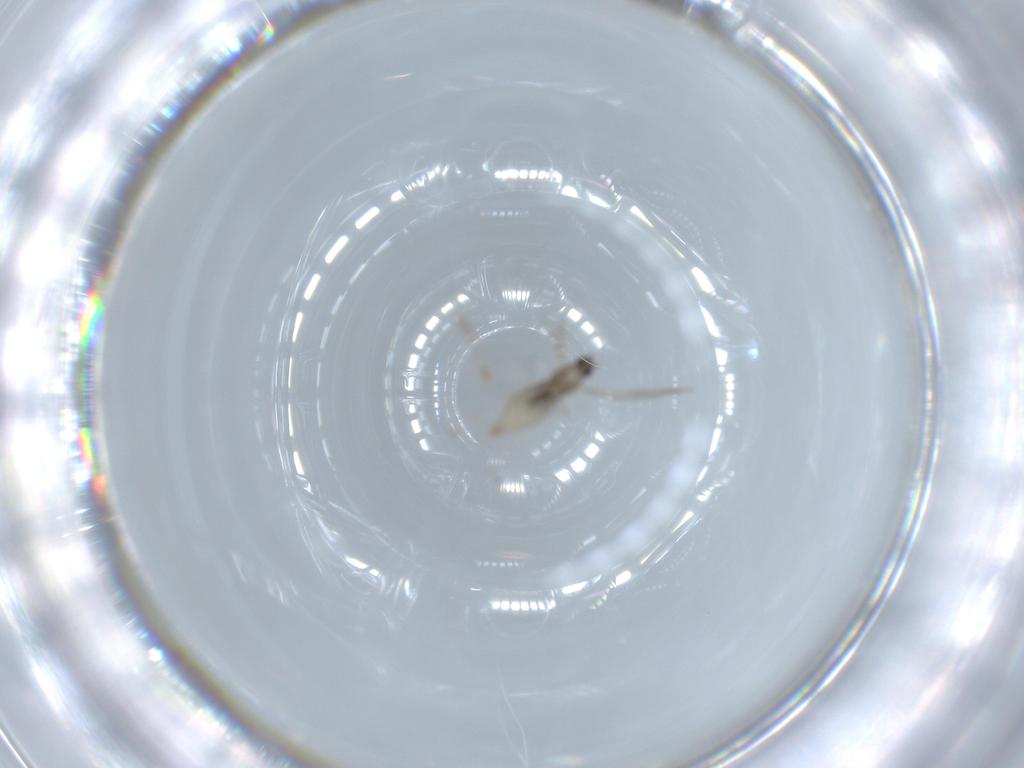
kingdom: Animalia
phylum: Arthropoda
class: Insecta
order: Diptera
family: Cecidomyiidae
